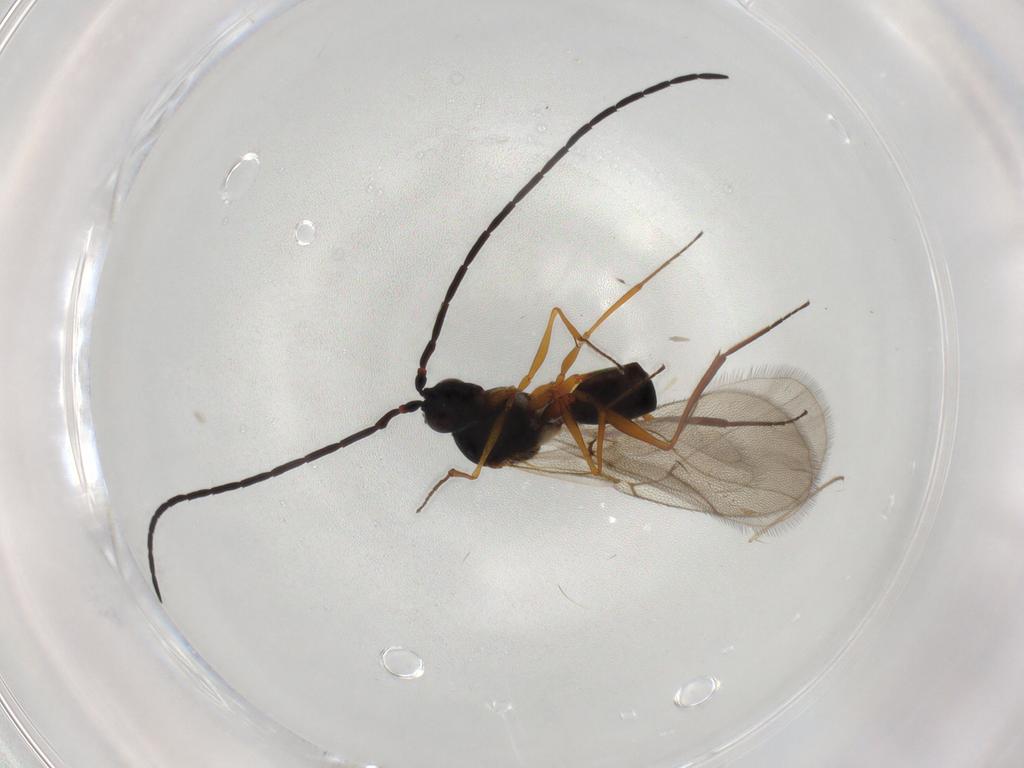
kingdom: Animalia
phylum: Arthropoda
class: Insecta
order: Hymenoptera
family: Figitidae
